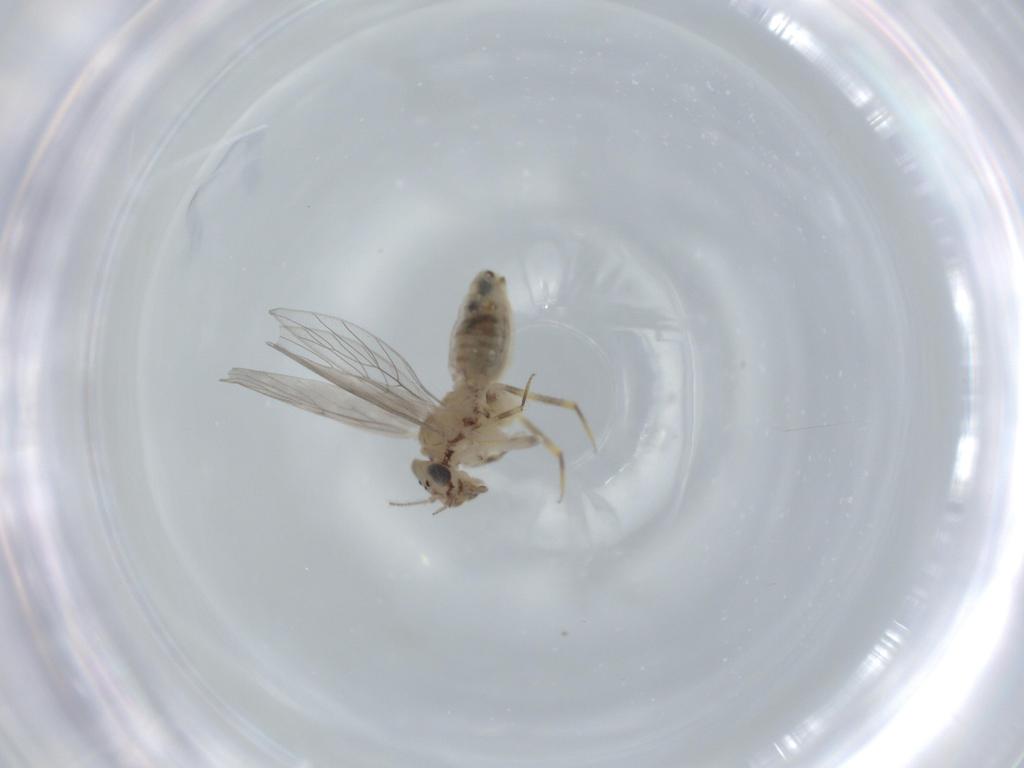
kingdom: Animalia
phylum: Arthropoda
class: Insecta
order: Psocodea
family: Lepidopsocidae
